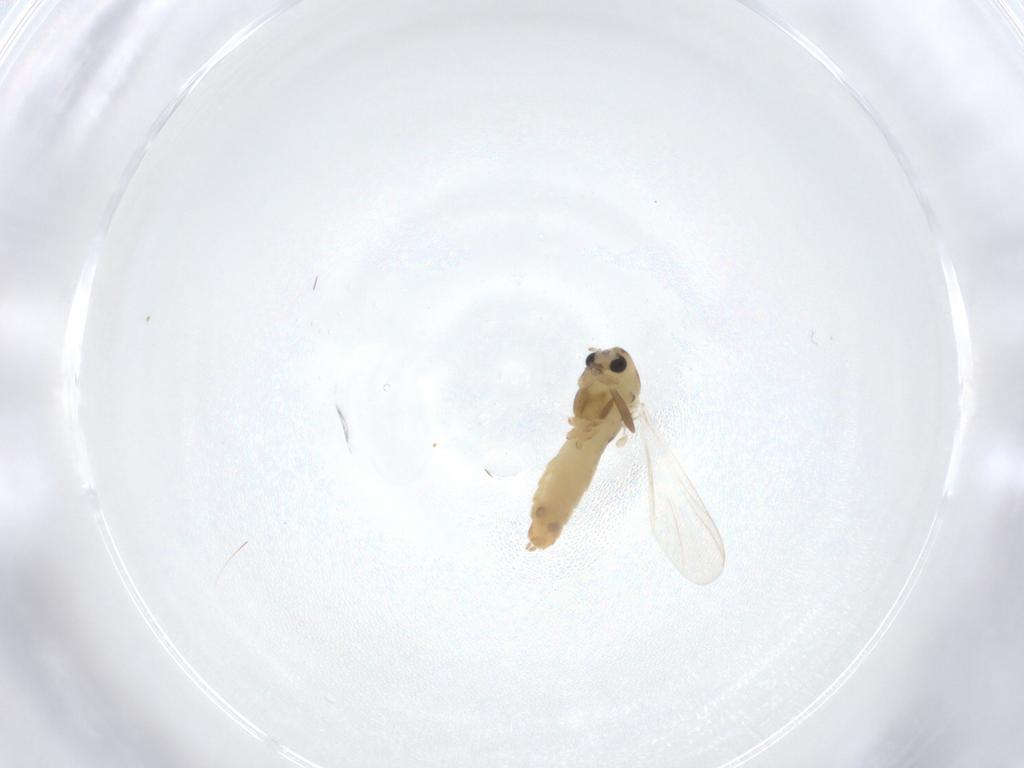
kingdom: Animalia
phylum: Arthropoda
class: Insecta
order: Diptera
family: Chironomidae
